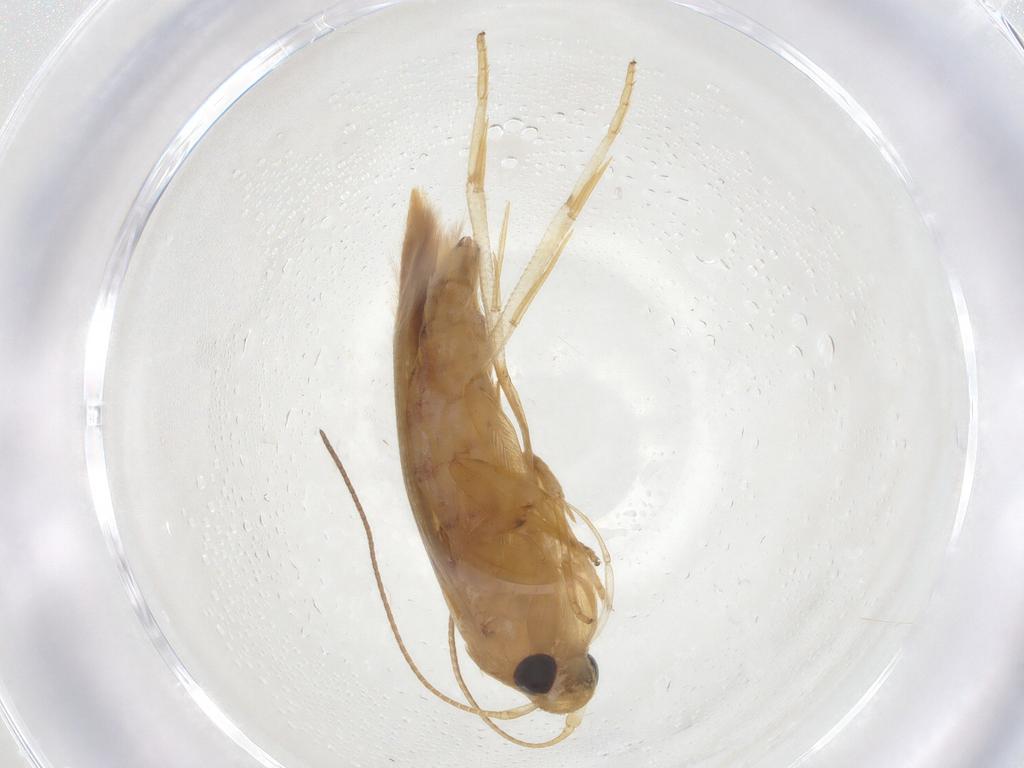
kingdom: Animalia
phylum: Arthropoda
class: Insecta
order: Lepidoptera
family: Stathmopodidae
